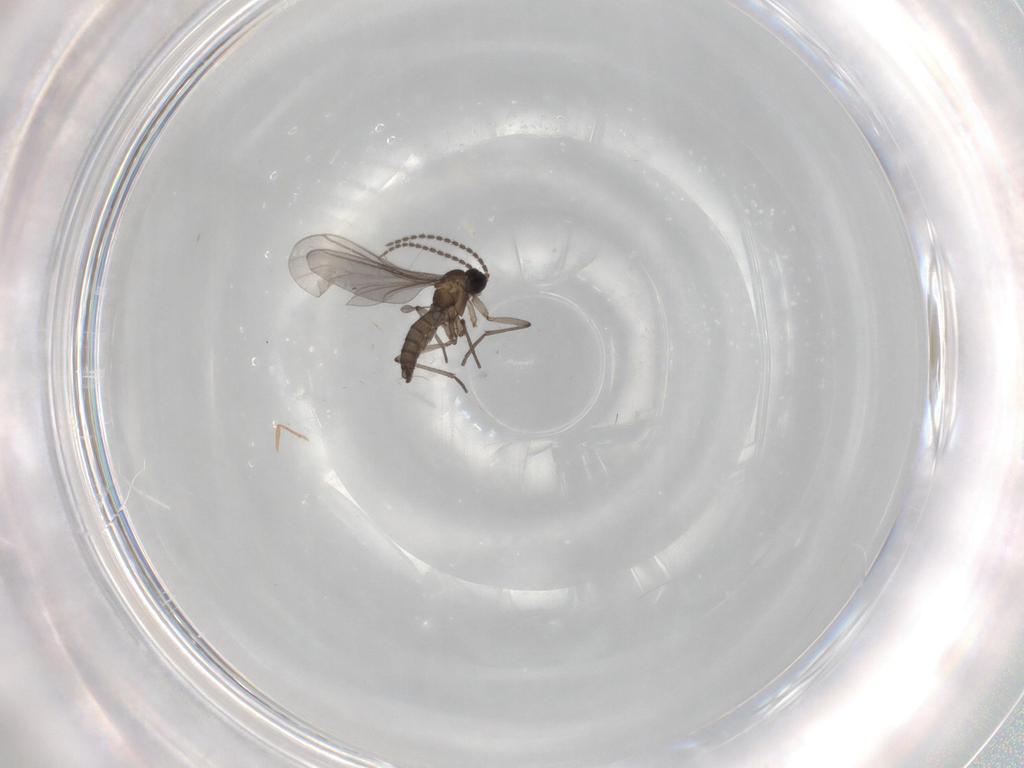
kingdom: Animalia
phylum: Arthropoda
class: Insecta
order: Diptera
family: Sciaridae
